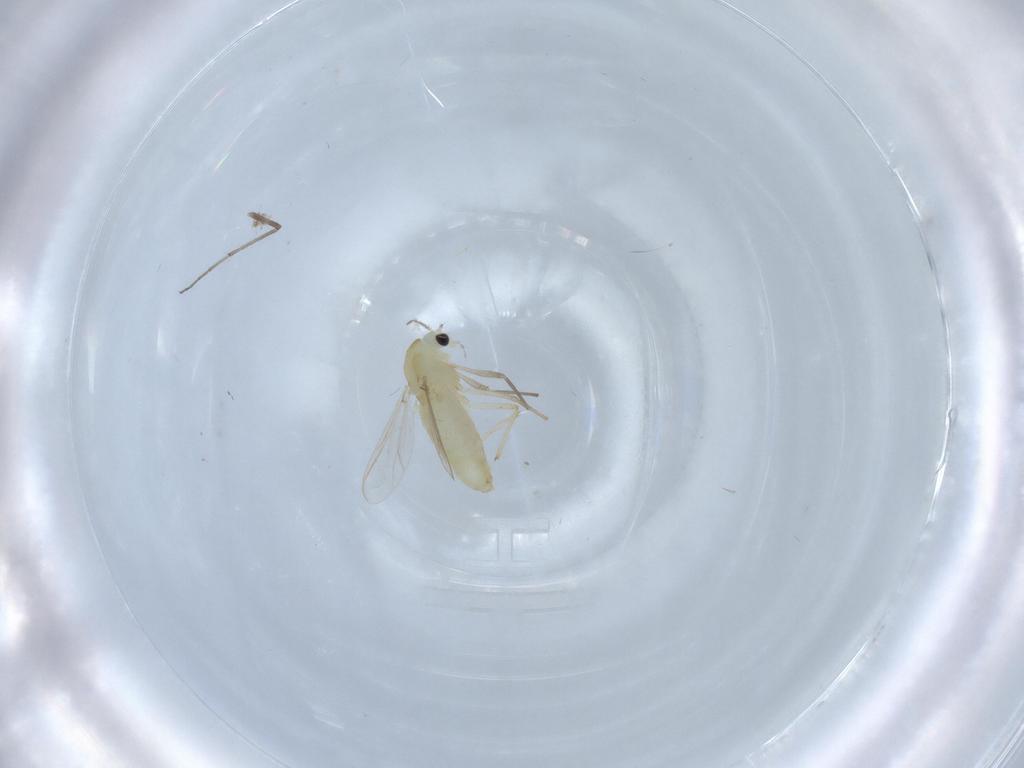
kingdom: Animalia
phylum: Arthropoda
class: Insecta
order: Diptera
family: Chironomidae
